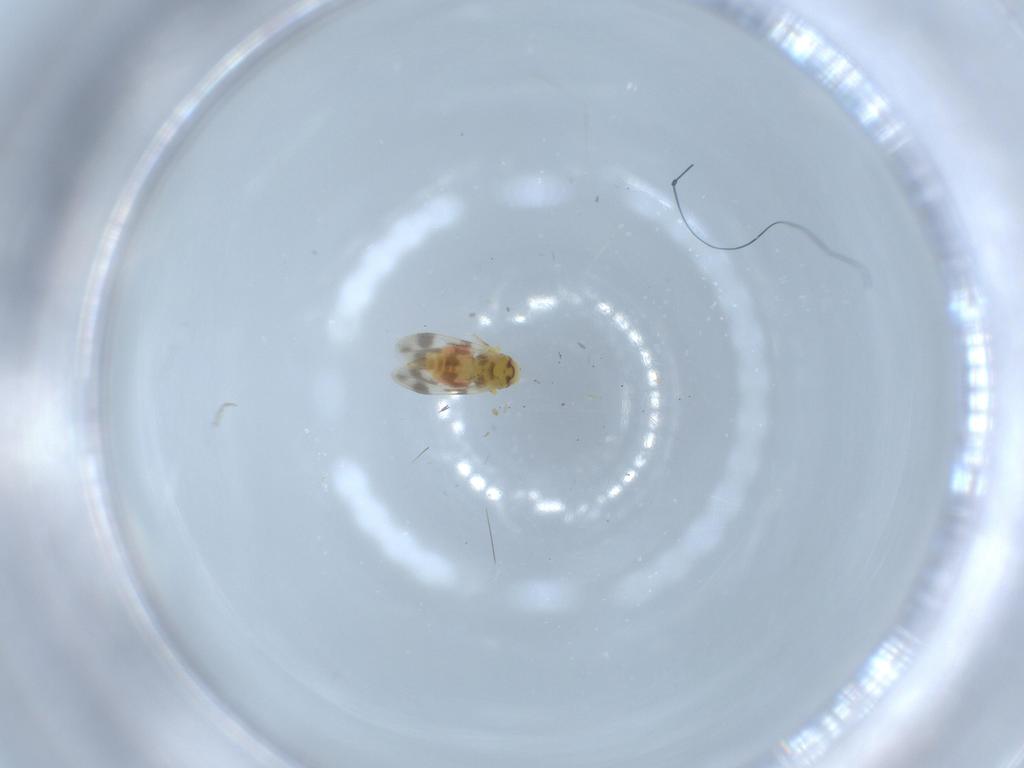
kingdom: Animalia
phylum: Arthropoda
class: Insecta
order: Hemiptera
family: Aleyrodidae
